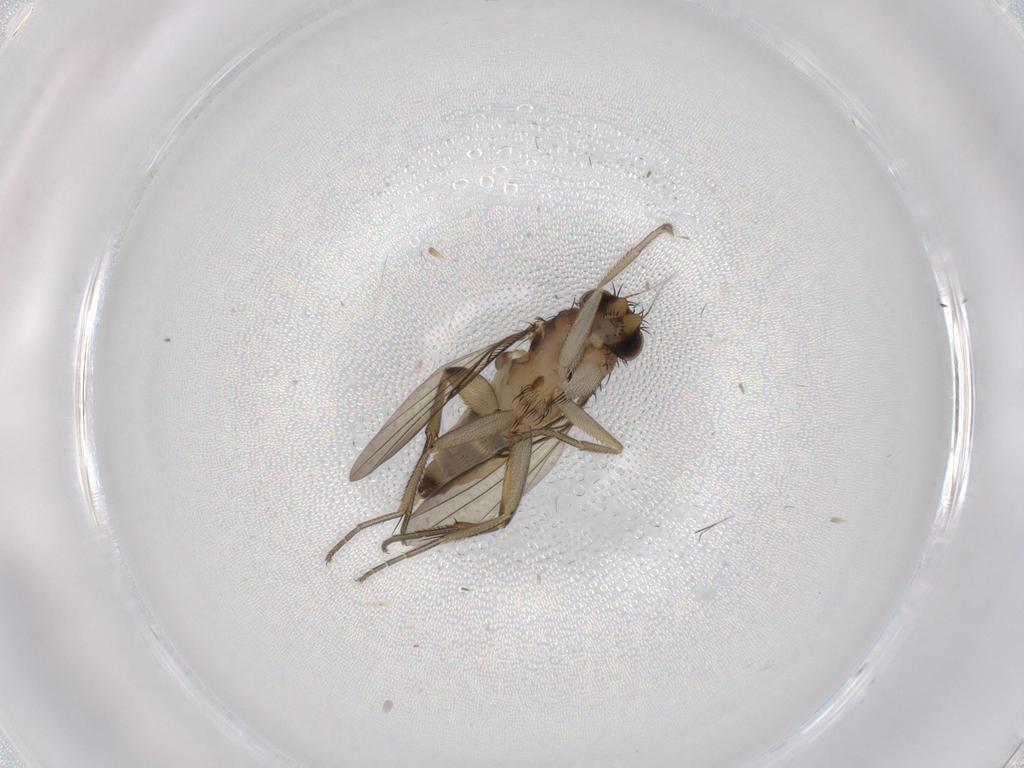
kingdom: Animalia
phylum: Arthropoda
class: Insecta
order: Diptera
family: Phoridae
